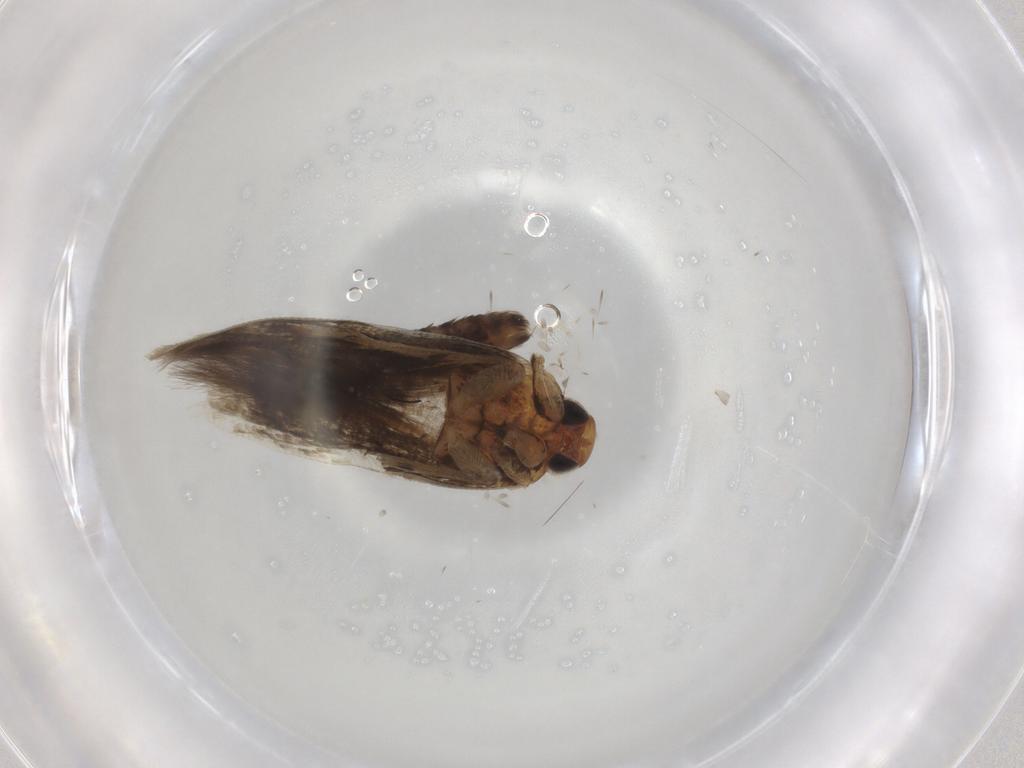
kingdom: Animalia
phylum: Arthropoda
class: Insecta
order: Lepidoptera
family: Cosmopterigidae
